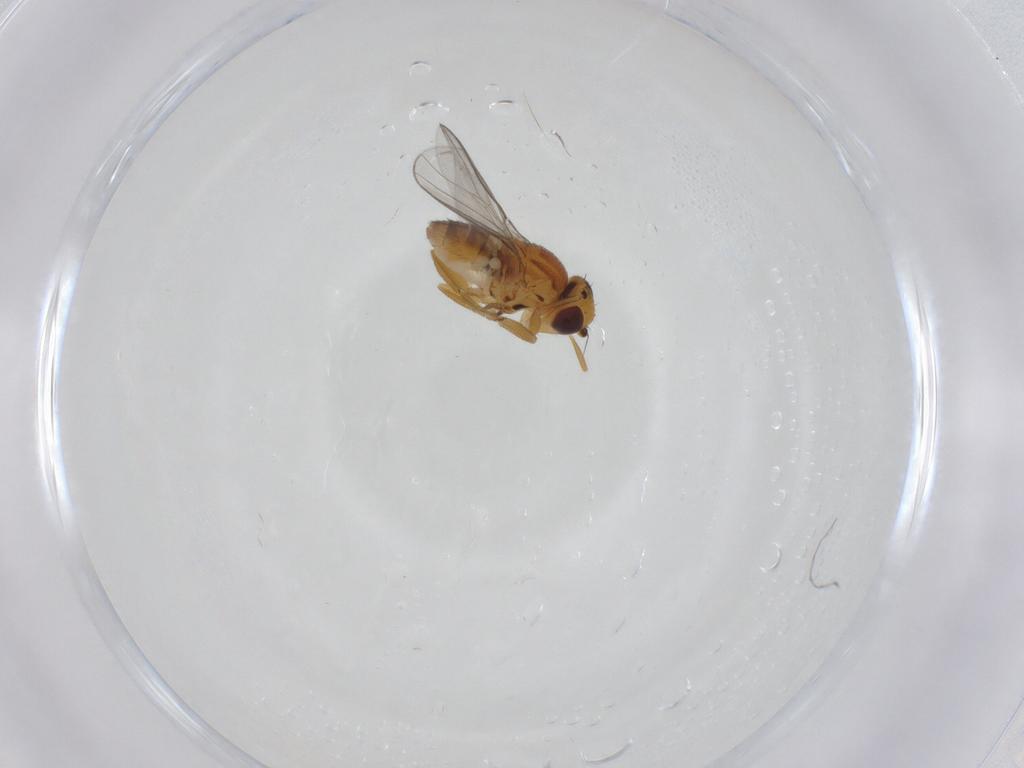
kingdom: Animalia
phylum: Arthropoda
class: Insecta
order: Diptera
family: Chloropidae
